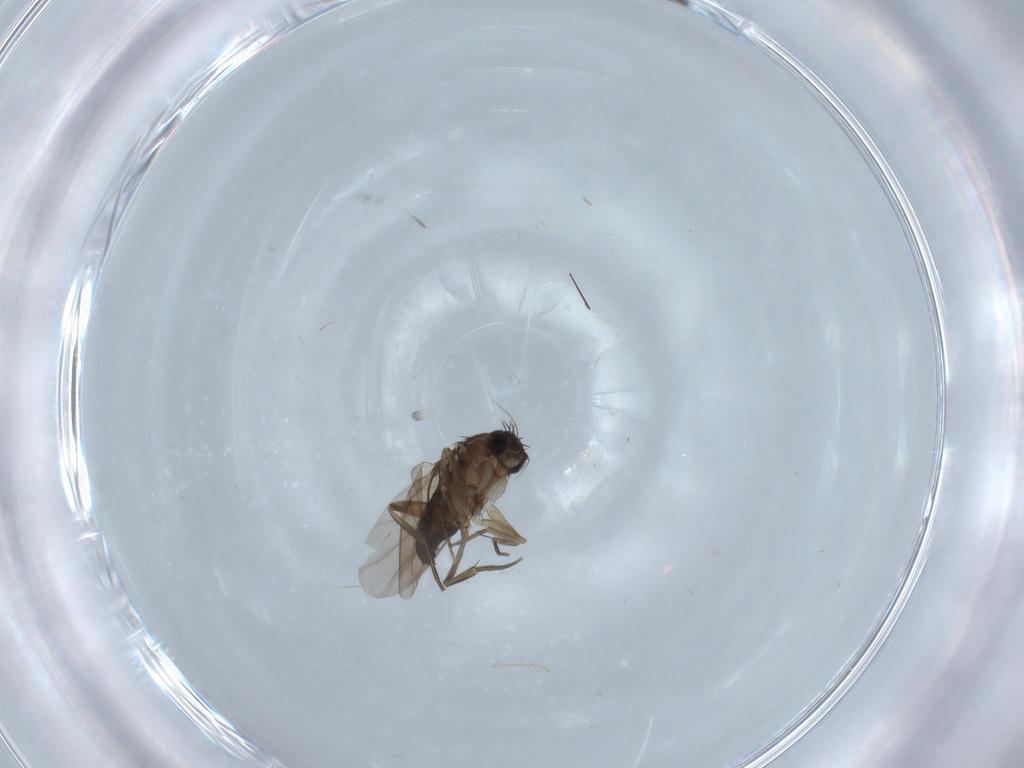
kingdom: Animalia
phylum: Arthropoda
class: Insecta
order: Diptera
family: Phoridae
